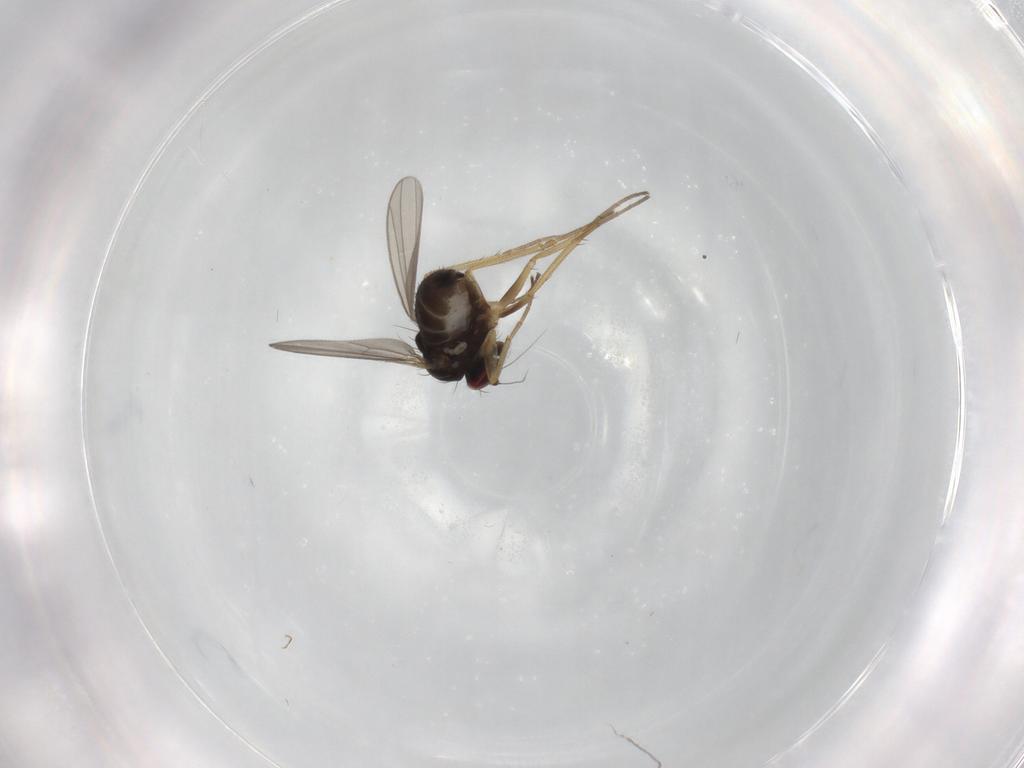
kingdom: Animalia
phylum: Arthropoda
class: Insecta
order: Diptera
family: Dolichopodidae
